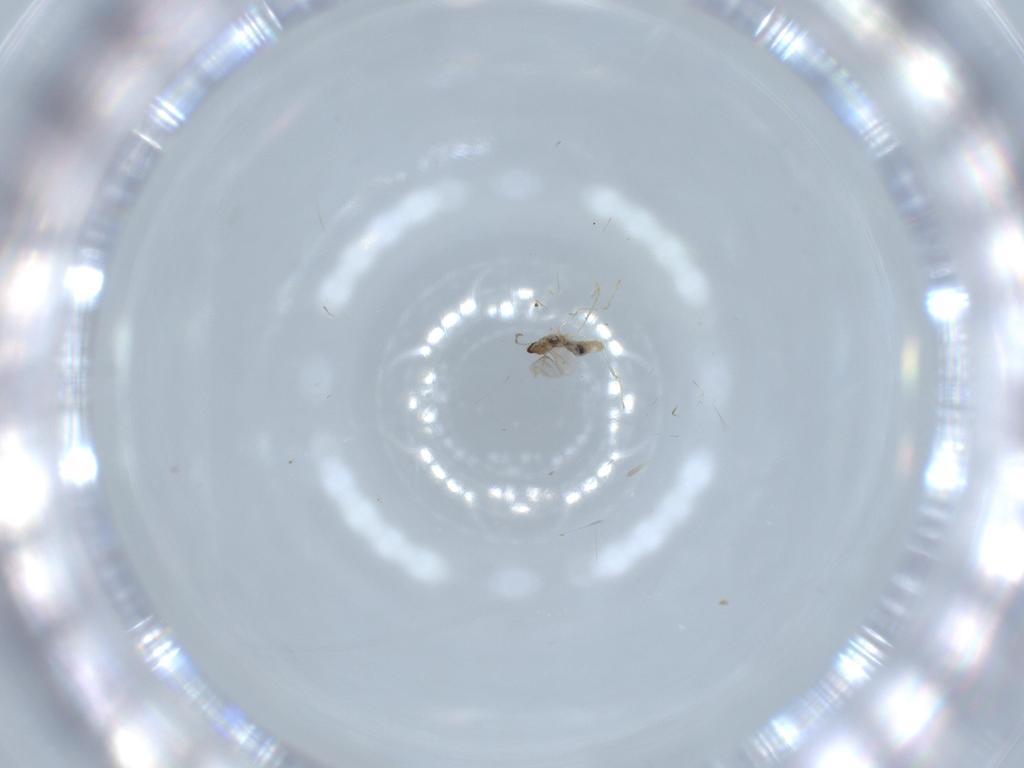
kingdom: Animalia
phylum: Arthropoda
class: Insecta
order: Diptera
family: Cecidomyiidae
